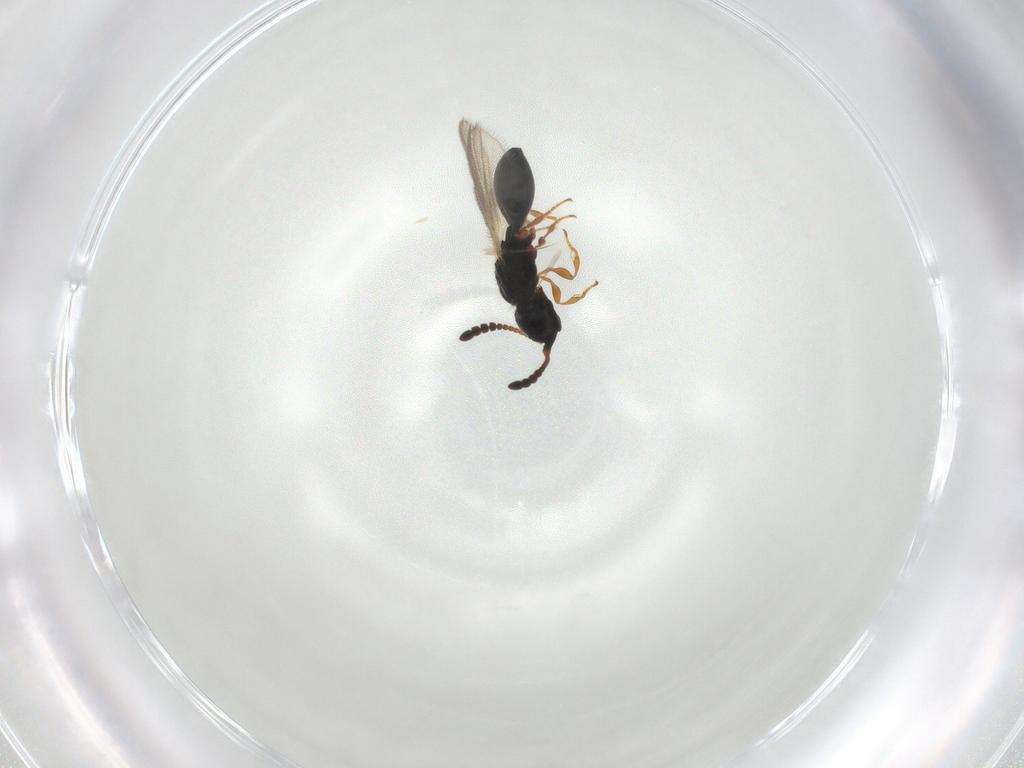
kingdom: Animalia
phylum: Arthropoda
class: Insecta
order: Hymenoptera
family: Diapriidae
